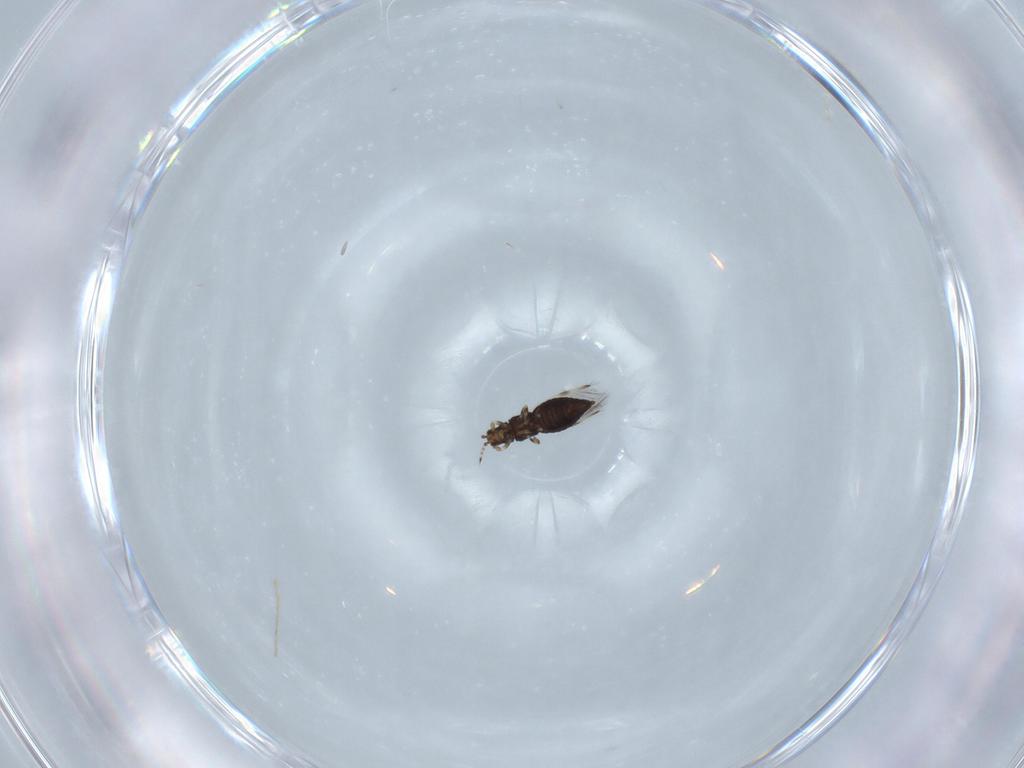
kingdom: Animalia
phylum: Arthropoda
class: Insecta
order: Thysanoptera
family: Thripidae
